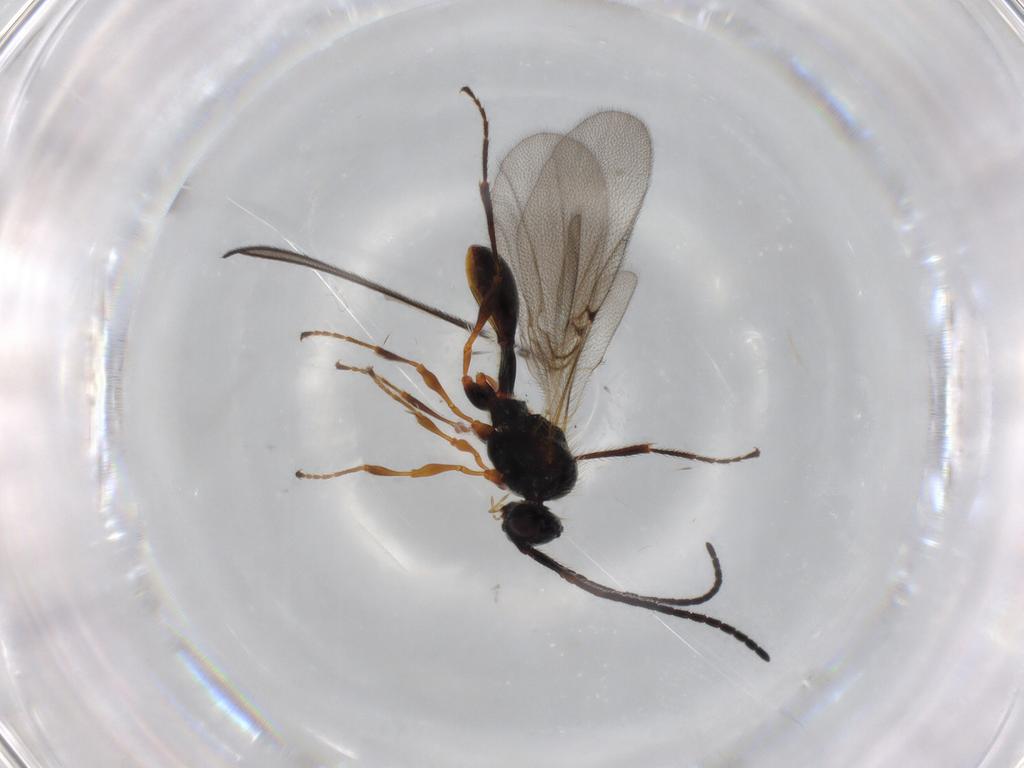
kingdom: Animalia
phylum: Arthropoda
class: Insecta
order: Hymenoptera
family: Diapriidae
